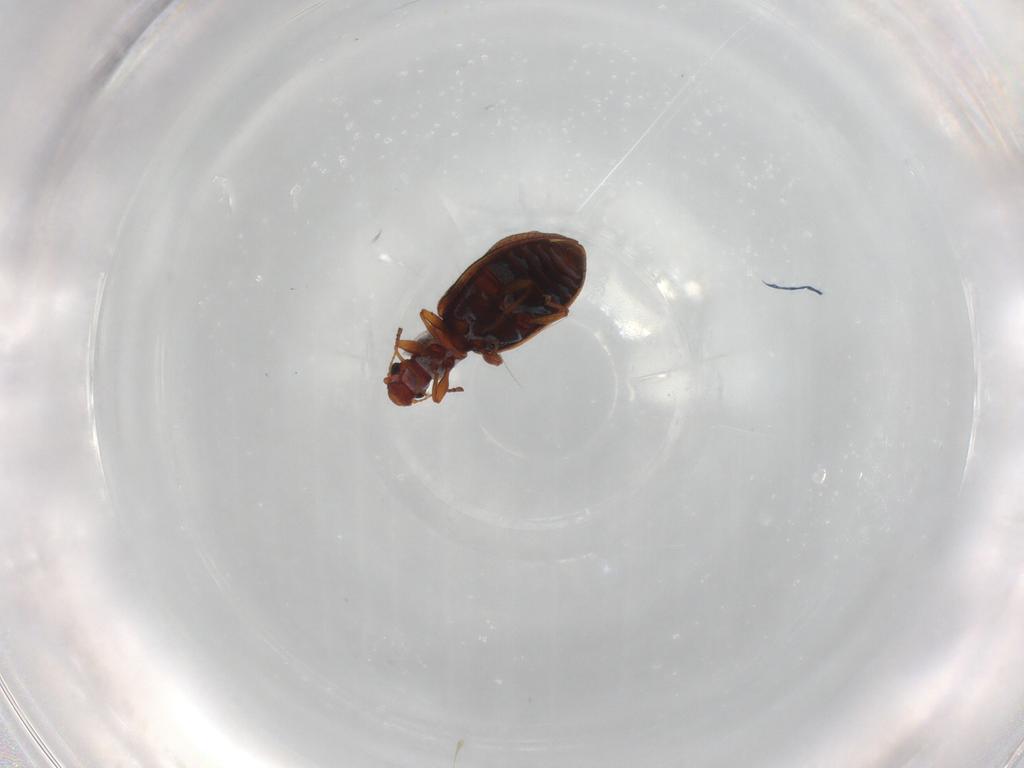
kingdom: Animalia
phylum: Arthropoda
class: Insecta
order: Coleoptera
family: Latridiidae
